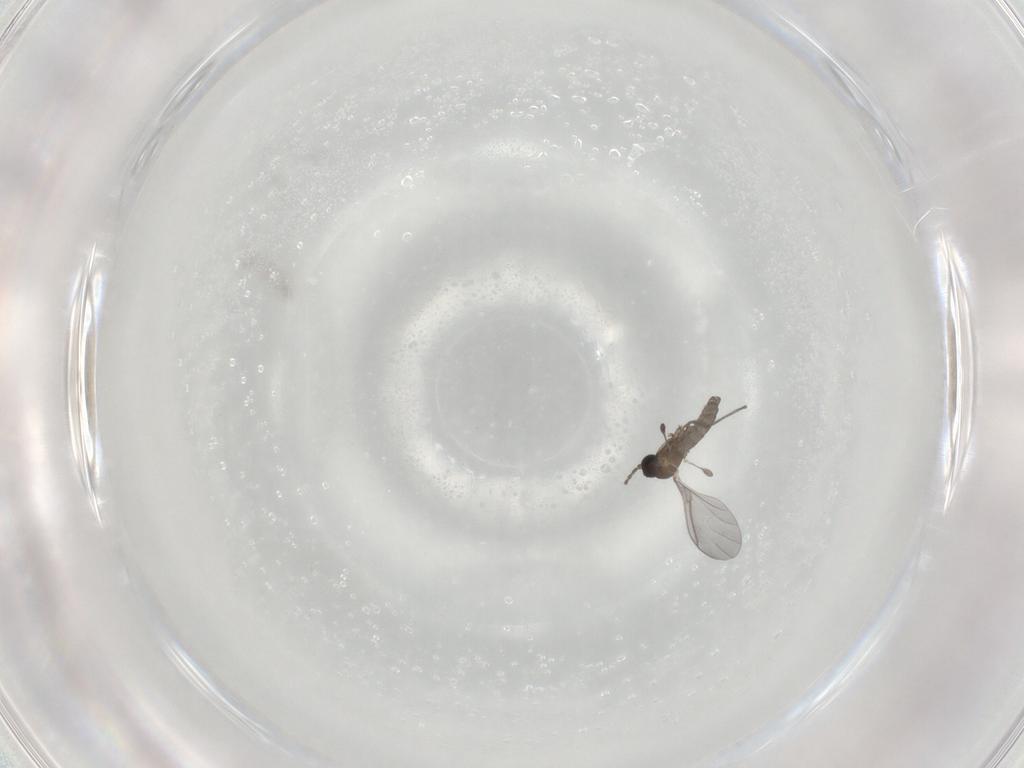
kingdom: Animalia
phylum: Arthropoda
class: Insecta
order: Diptera
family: Sciaridae
